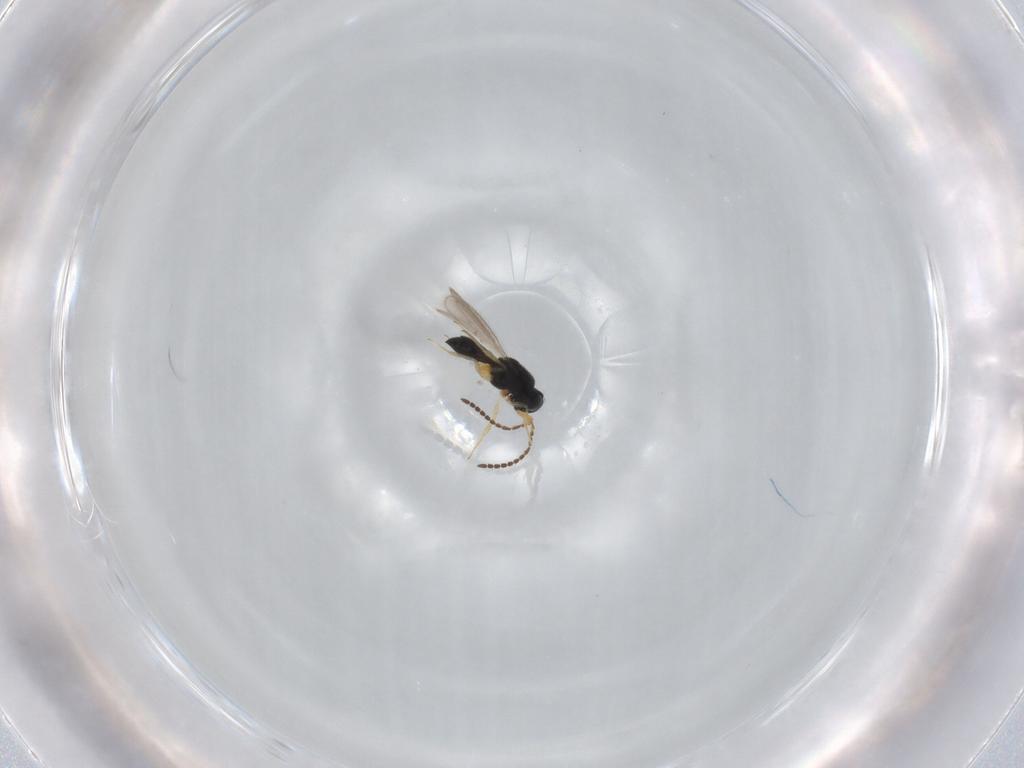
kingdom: Animalia
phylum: Arthropoda
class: Insecta
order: Hymenoptera
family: Scelionidae
